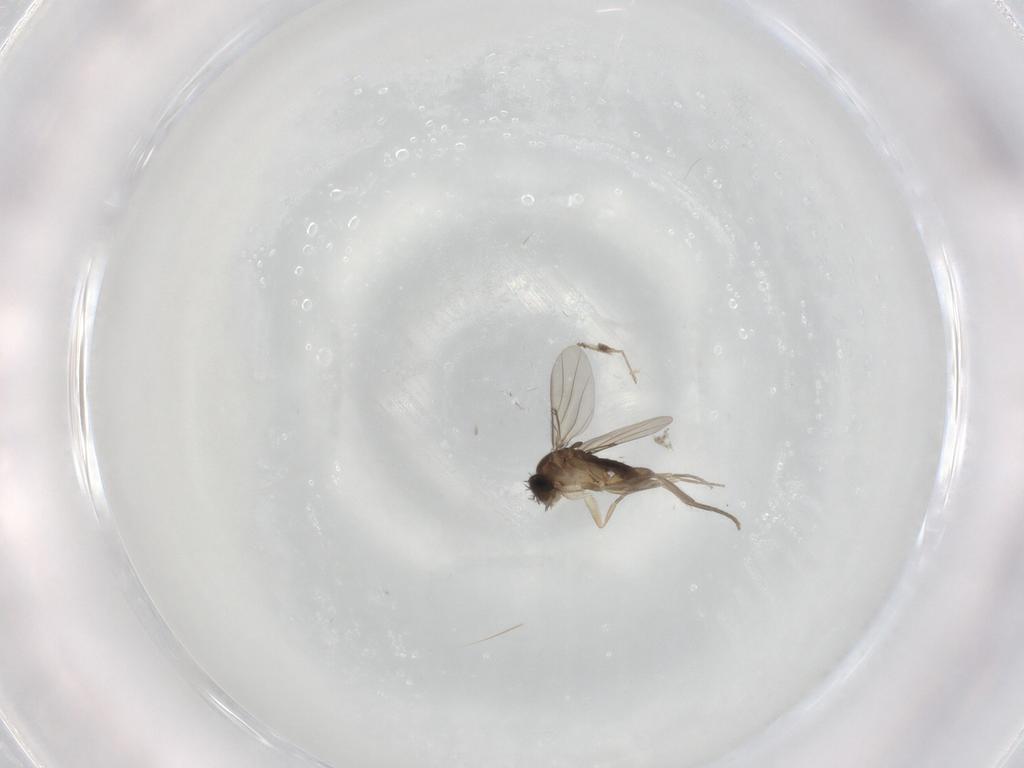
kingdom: Animalia
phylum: Arthropoda
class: Insecta
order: Diptera
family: Phoridae
